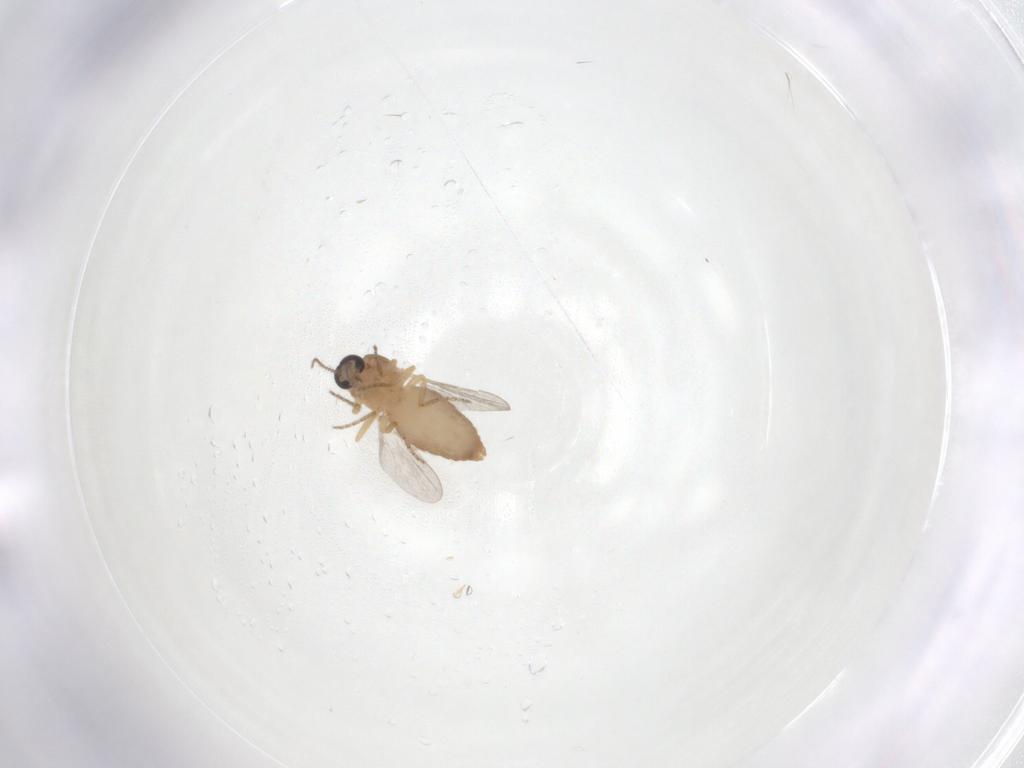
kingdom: Animalia
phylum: Arthropoda
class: Insecta
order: Diptera
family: Ceratopogonidae
